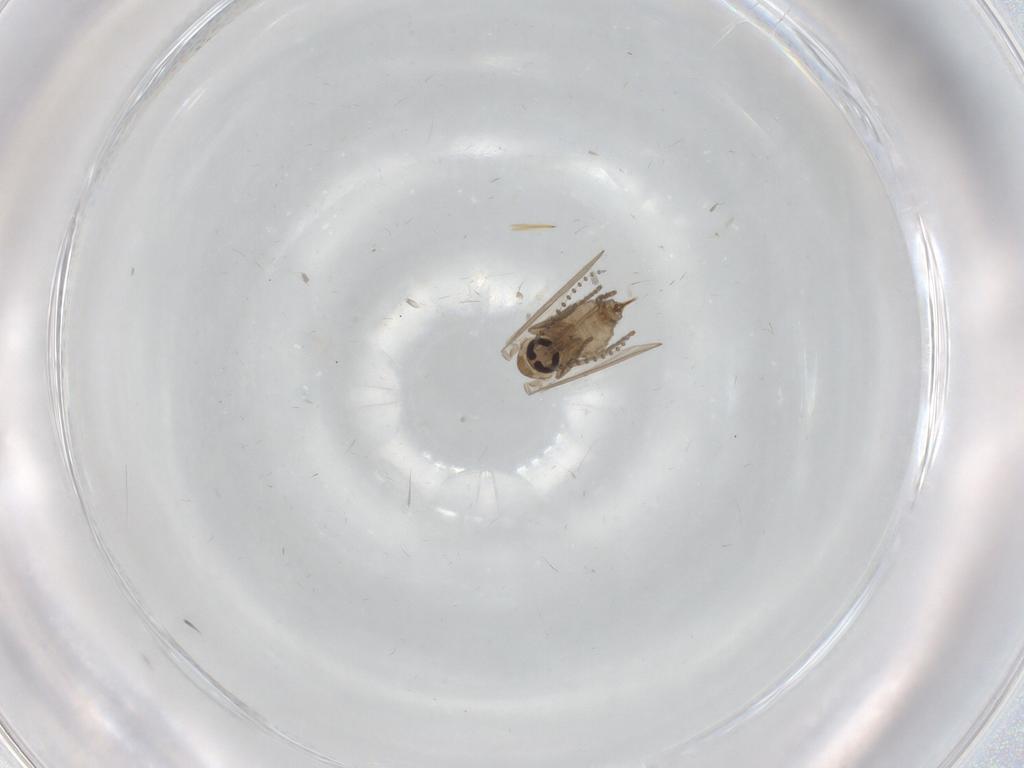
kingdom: Animalia
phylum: Arthropoda
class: Insecta
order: Diptera
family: Psychodidae
